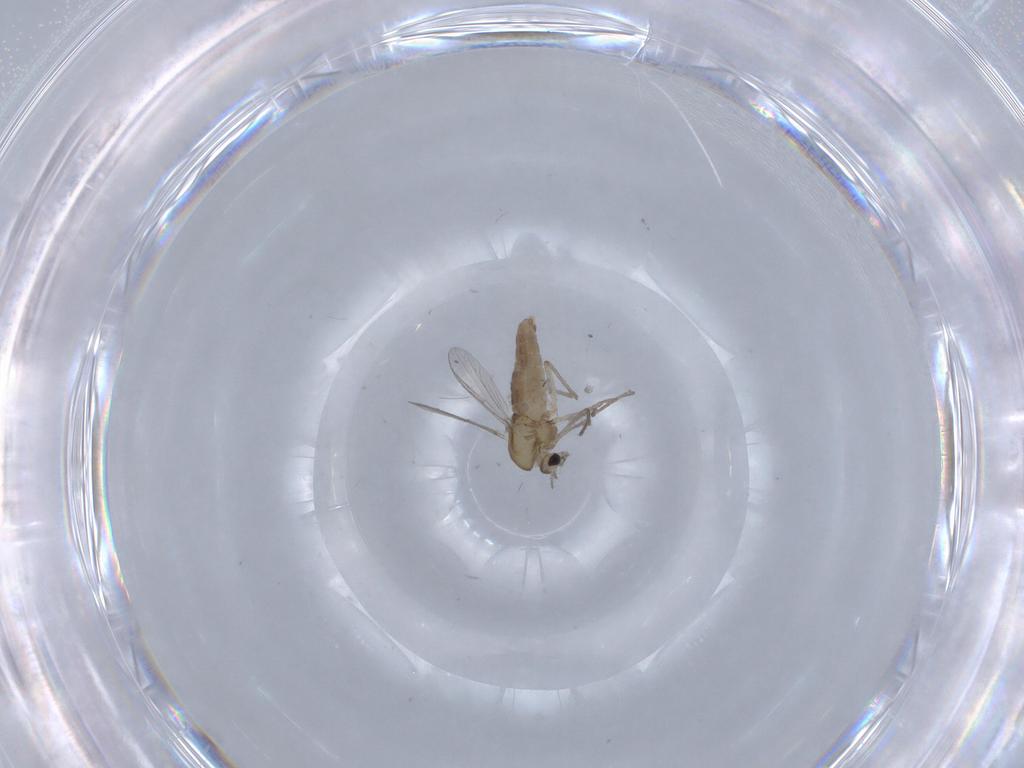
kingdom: Animalia
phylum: Arthropoda
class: Insecta
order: Diptera
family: Chironomidae
